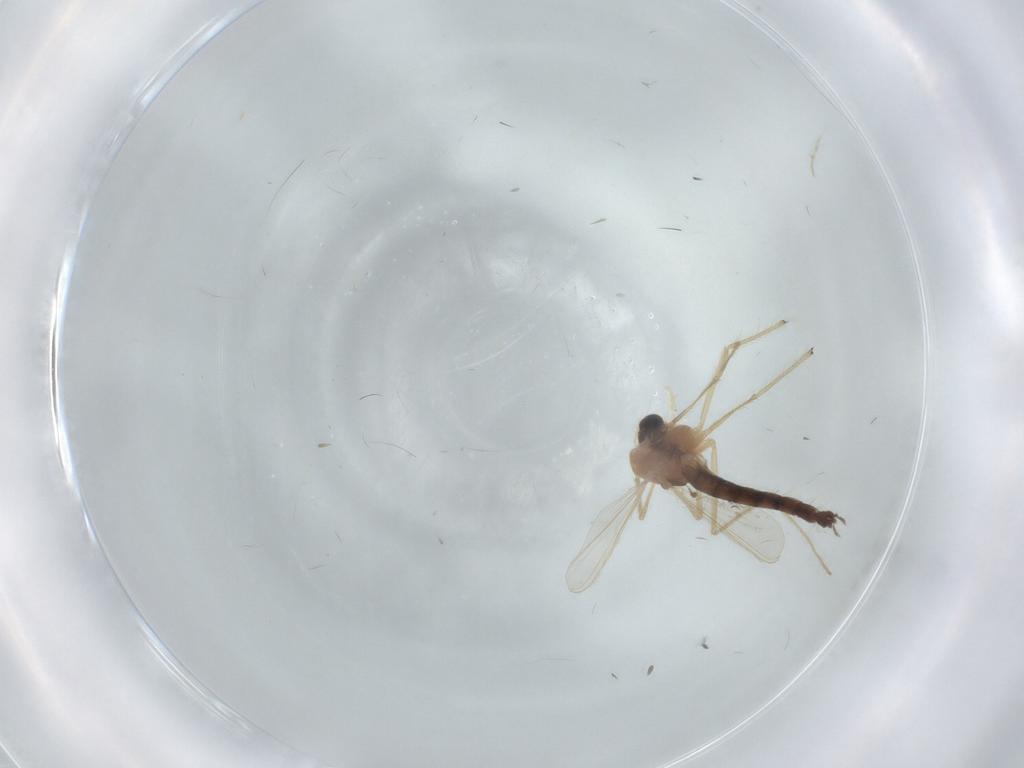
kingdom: Animalia
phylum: Arthropoda
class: Insecta
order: Diptera
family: Chironomidae
